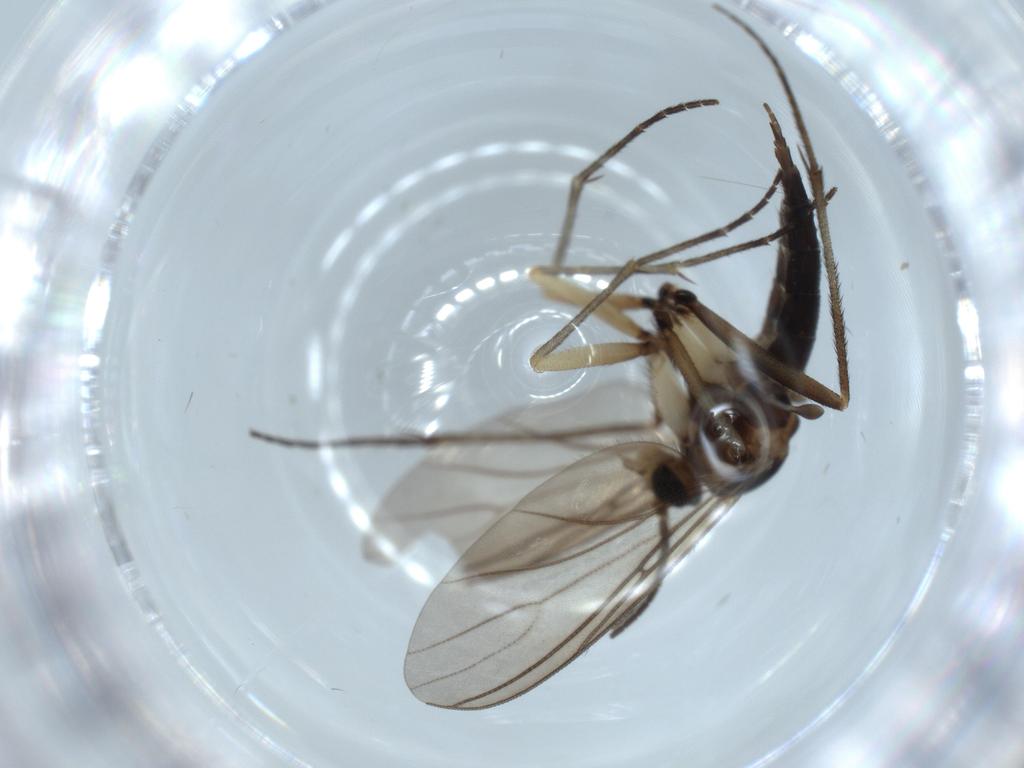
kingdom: Animalia
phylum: Arthropoda
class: Insecta
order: Diptera
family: Sciaridae
